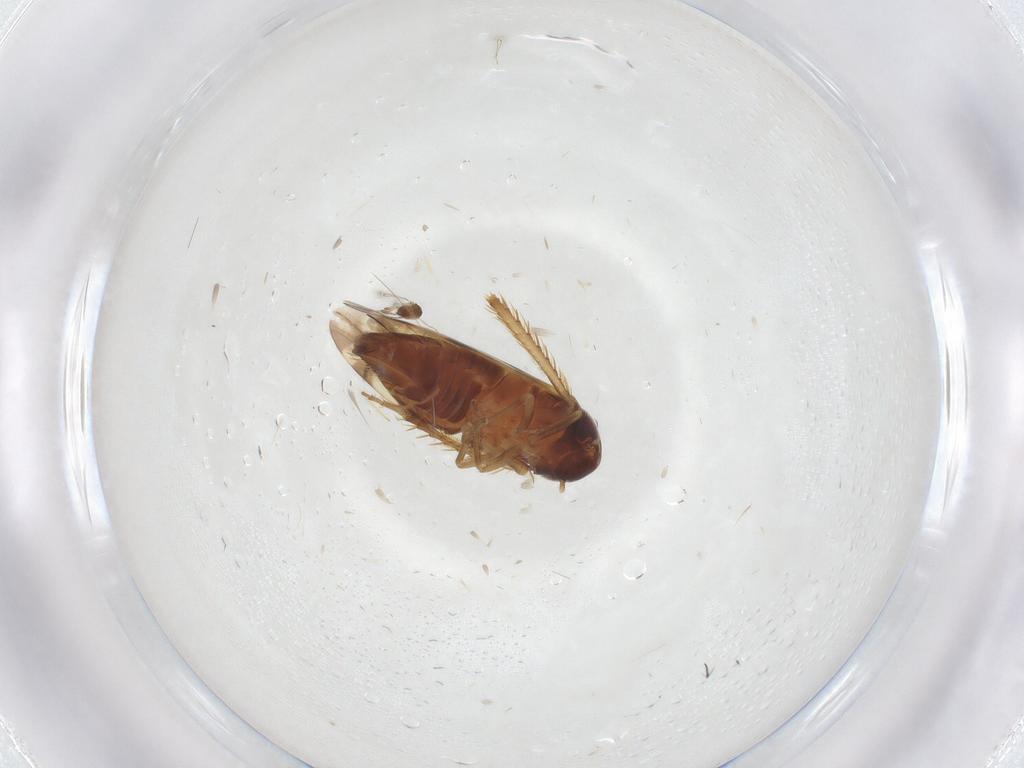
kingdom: Animalia
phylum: Arthropoda
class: Insecta
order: Hemiptera
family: Cicadellidae
